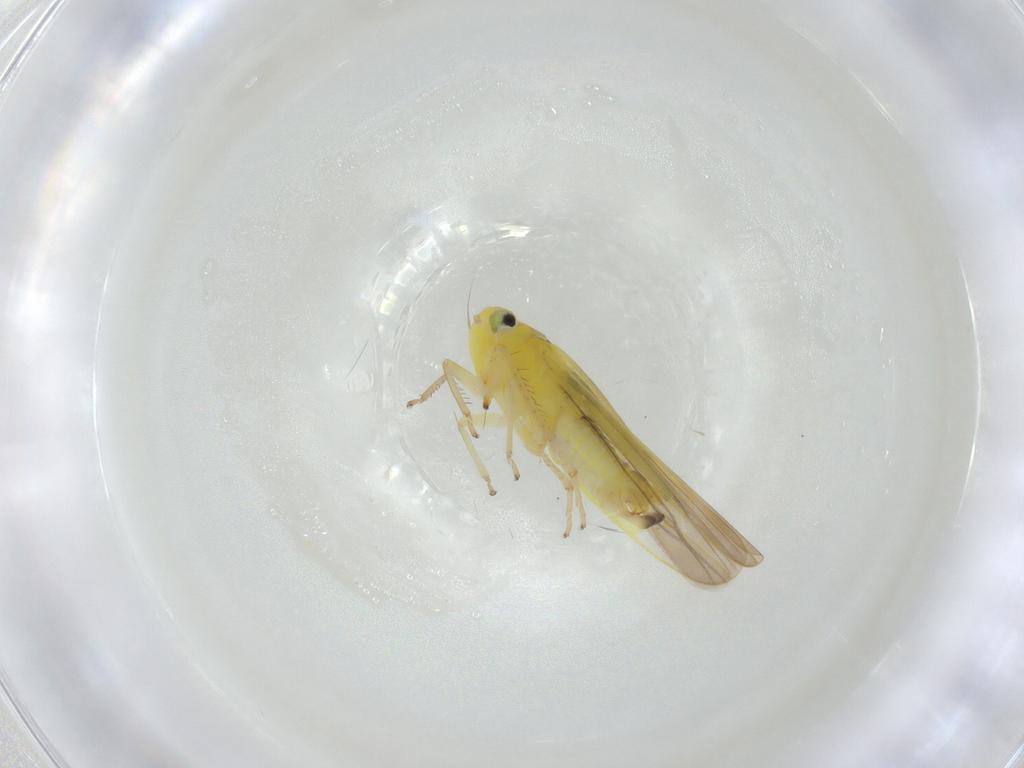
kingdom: Animalia
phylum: Arthropoda
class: Insecta
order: Hemiptera
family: Cicadellidae
